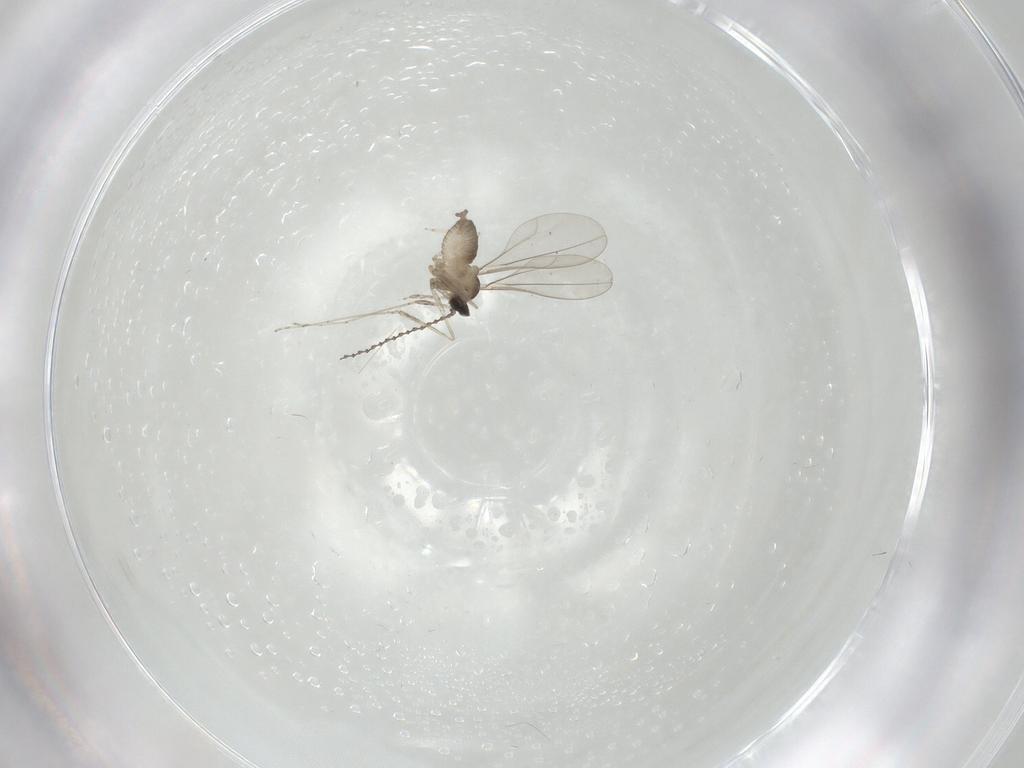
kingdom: Animalia
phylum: Arthropoda
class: Insecta
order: Diptera
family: Cecidomyiidae
